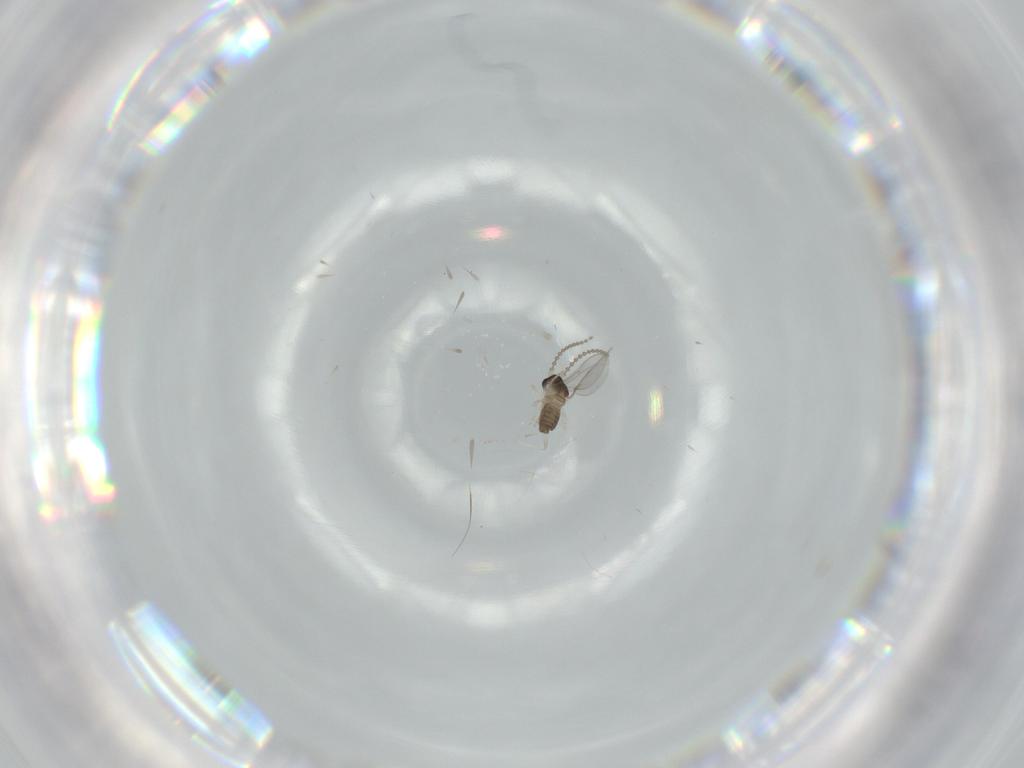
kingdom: Animalia
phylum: Arthropoda
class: Insecta
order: Diptera
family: Cecidomyiidae
